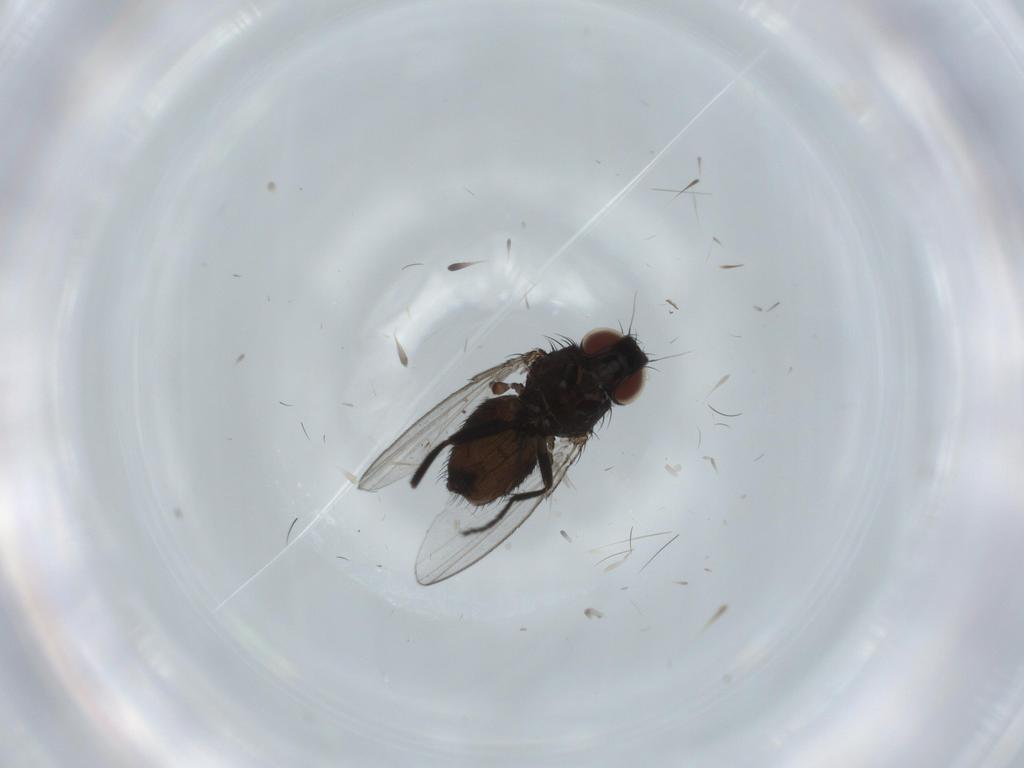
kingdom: Animalia
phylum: Arthropoda
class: Insecta
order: Diptera
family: Milichiidae
